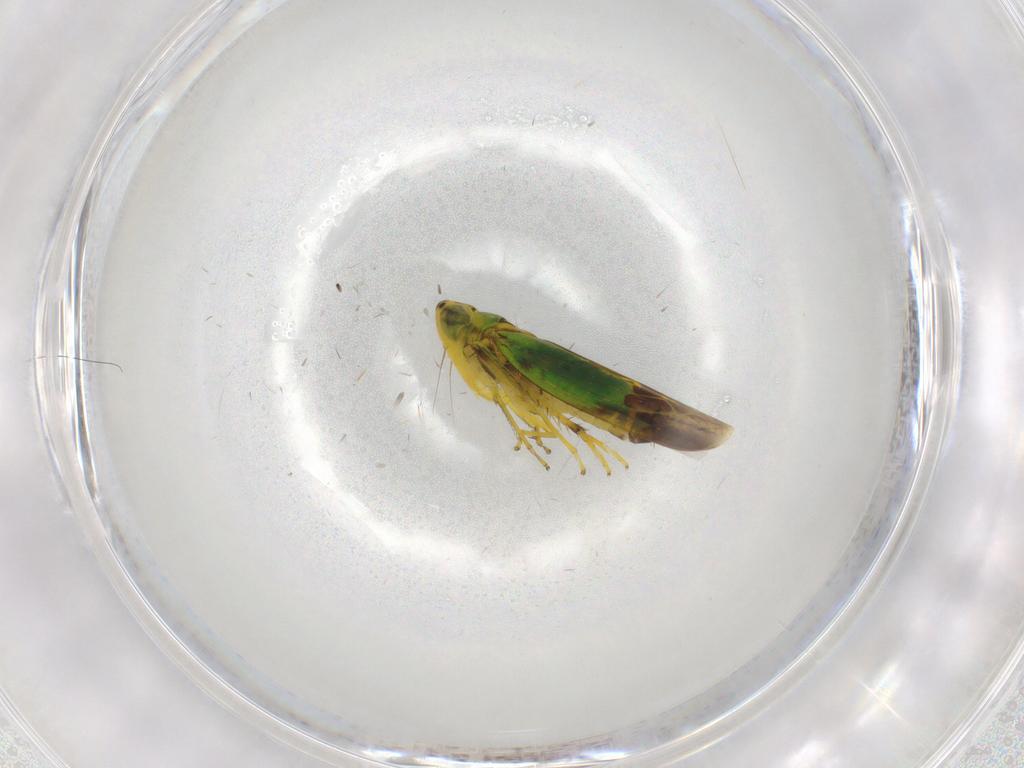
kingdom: Animalia
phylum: Arthropoda
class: Insecta
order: Hemiptera
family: Cicadellidae
